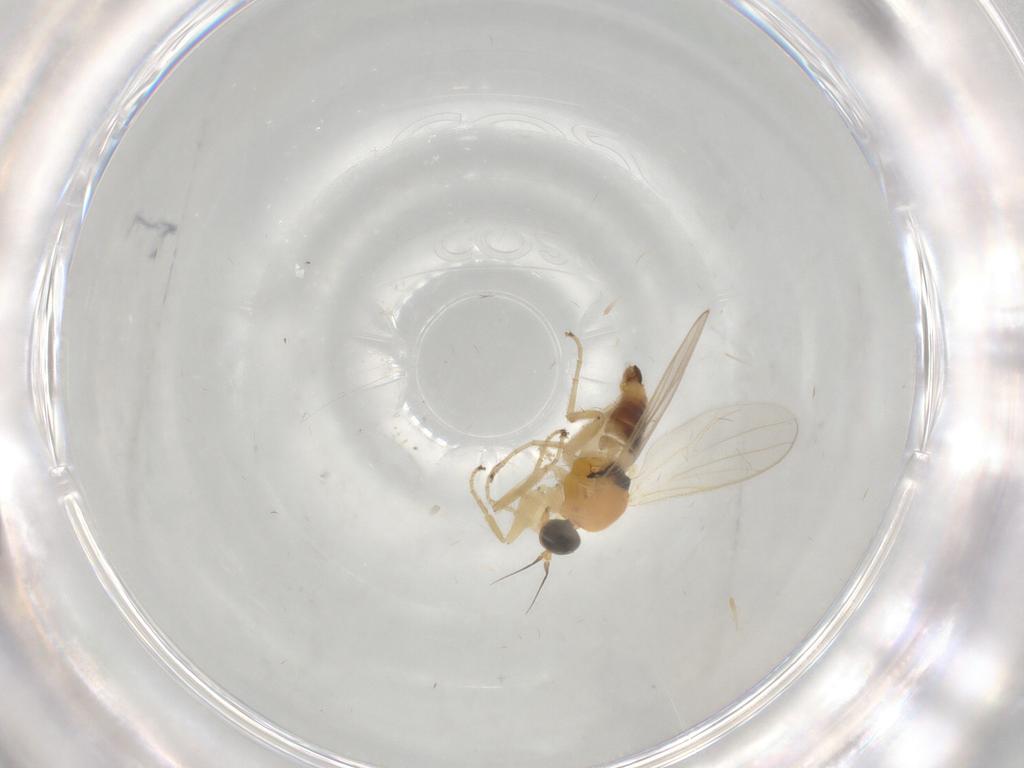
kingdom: Animalia
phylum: Arthropoda
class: Insecta
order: Diptera
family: Hybotidae
